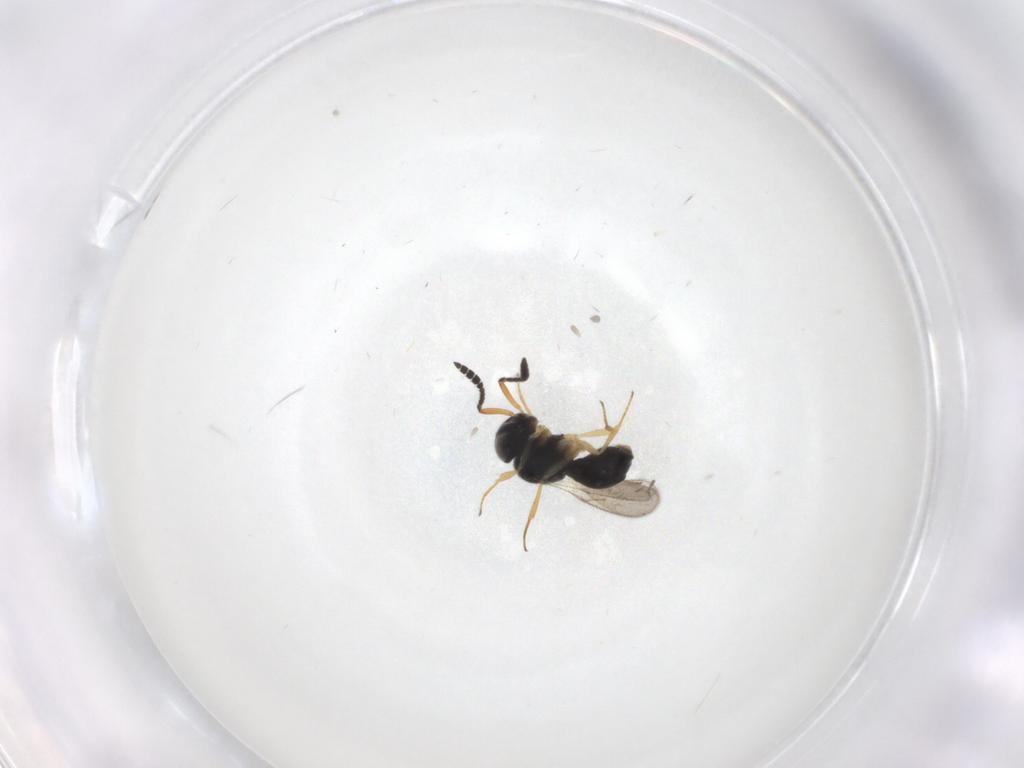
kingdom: Animalia
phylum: Arthropoda
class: Insecta
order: Hymenoptera
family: Scelionidae
